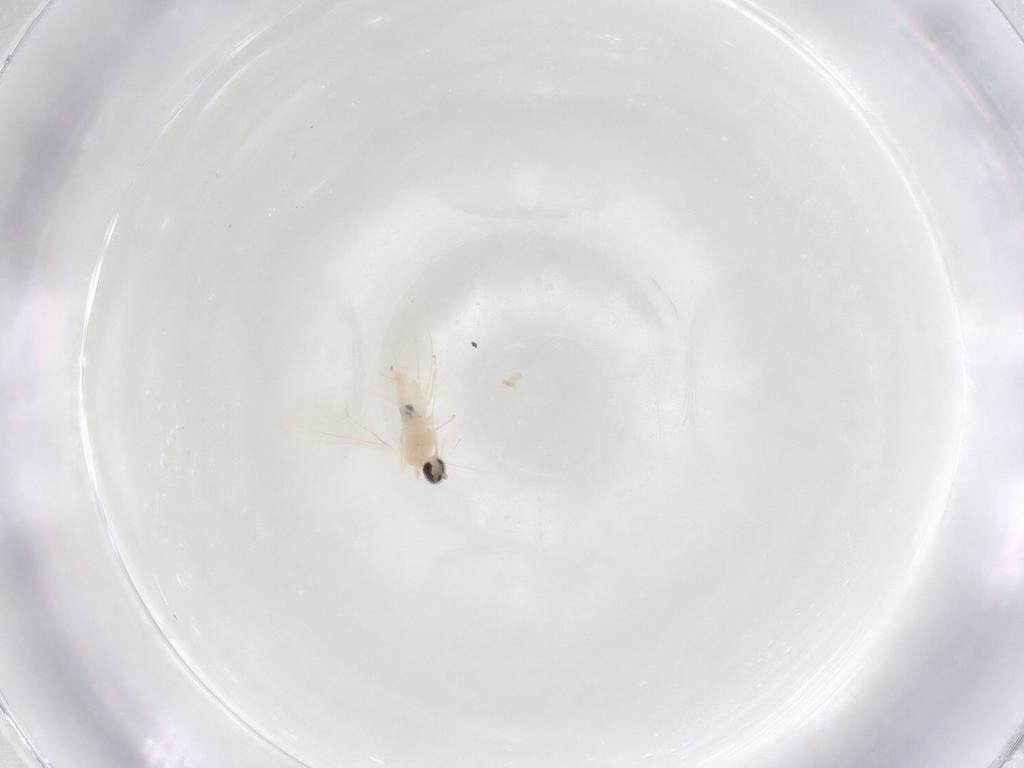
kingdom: Animalia
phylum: Arthropoda
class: Insecta
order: Diptera
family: Cecidomyiidae
